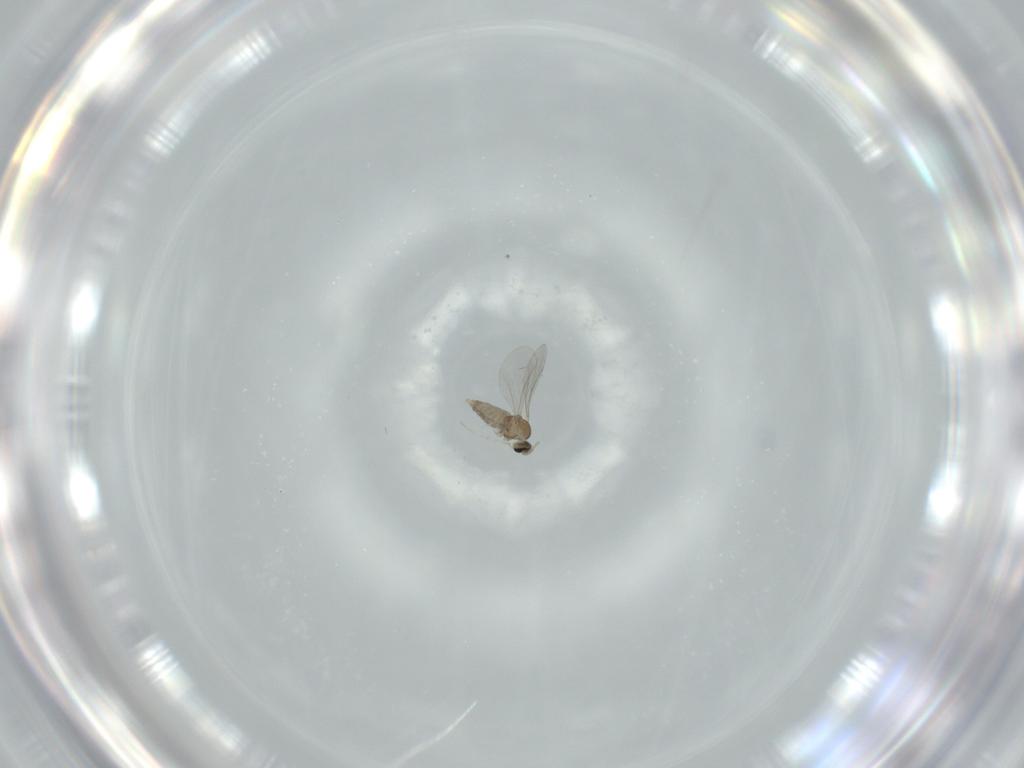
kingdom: Animalia
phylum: Arthropoda
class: Insecta
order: Diptera
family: Cecidomyiidae
